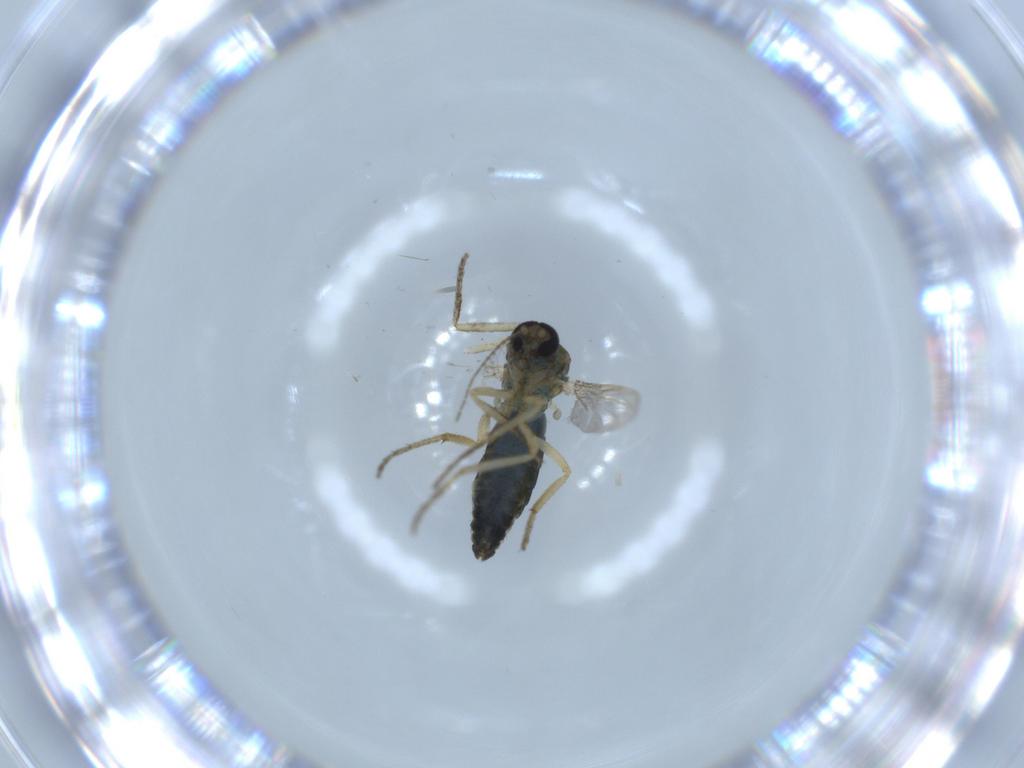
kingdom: Animalia
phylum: Arthropoda
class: Insecta
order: Diptera
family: Ceratopogonidae
